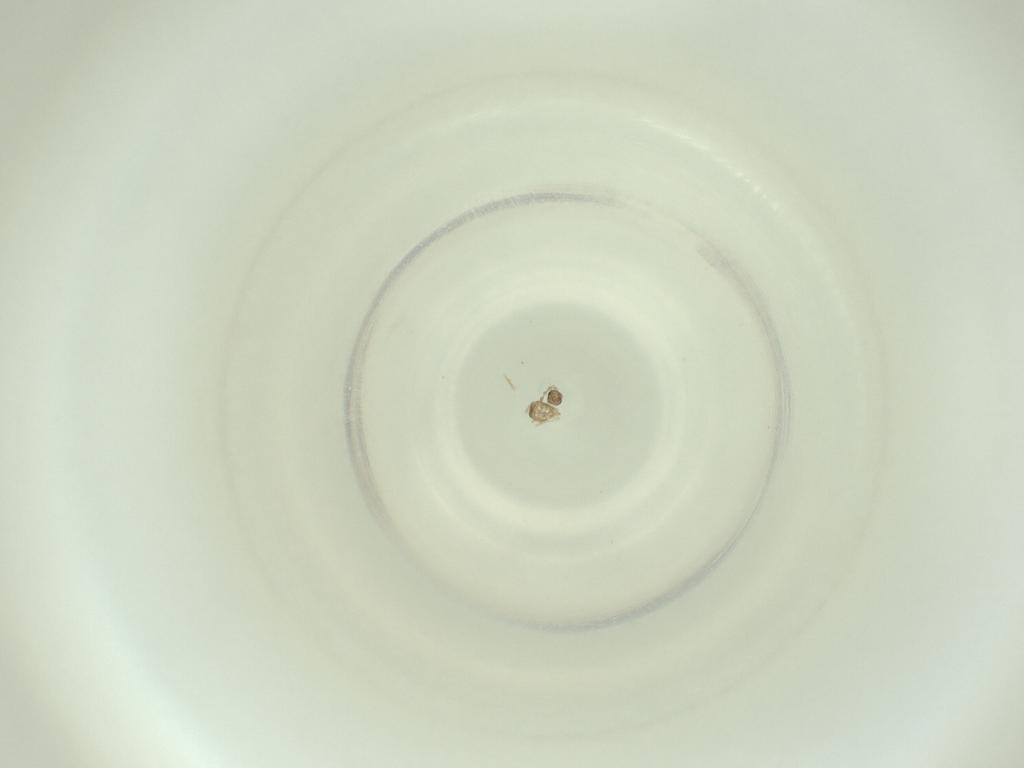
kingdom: Animalia
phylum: Arthropoda
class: Insecta
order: Diptera
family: Cecidomyiidae
